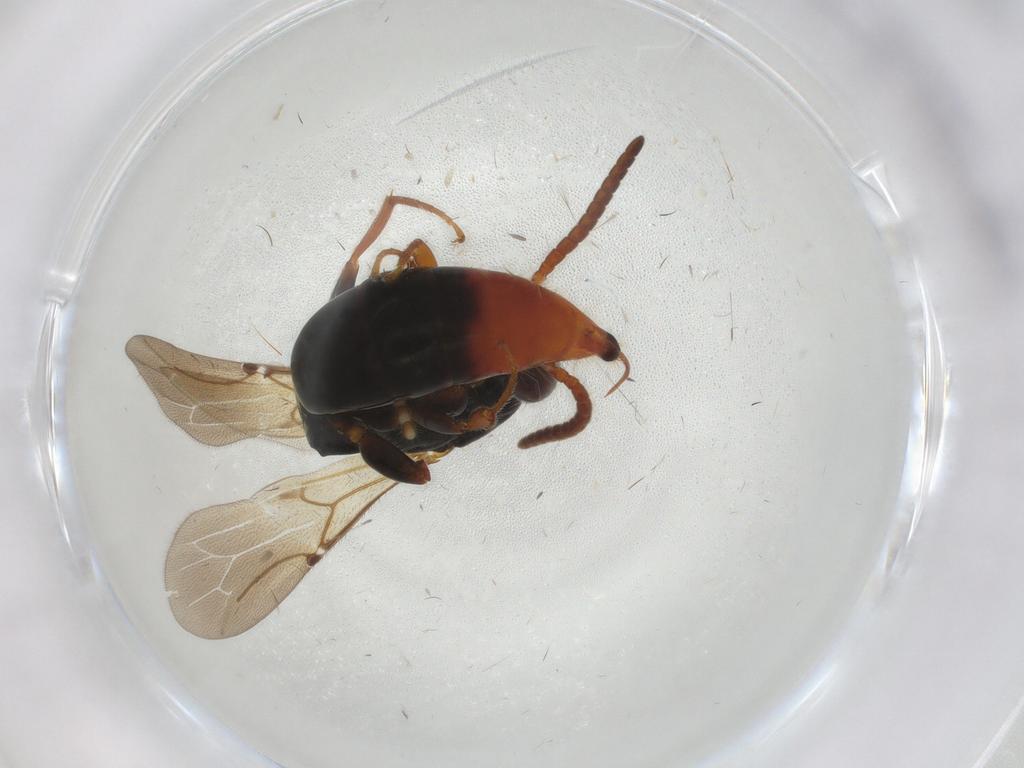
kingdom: Animalia
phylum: Arthropoda
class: Insecta
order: Hymenoptera
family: Bethylidae
